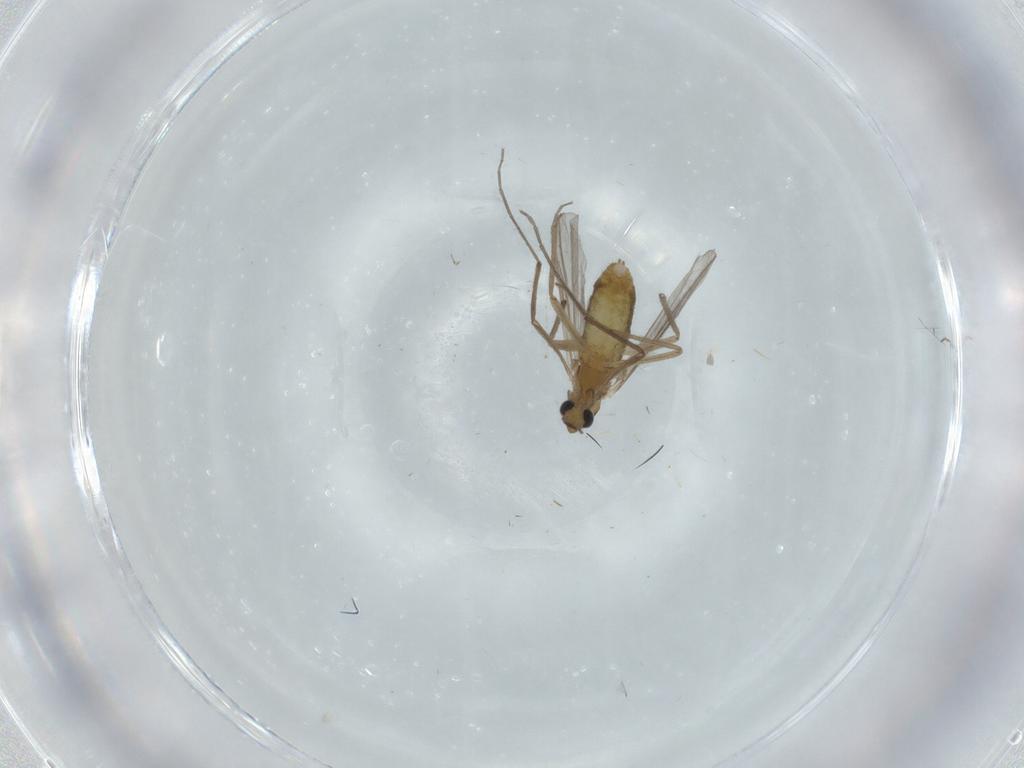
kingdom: Animalia
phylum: Arthropoda
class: Insecta
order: Diptera
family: Chironomidae
